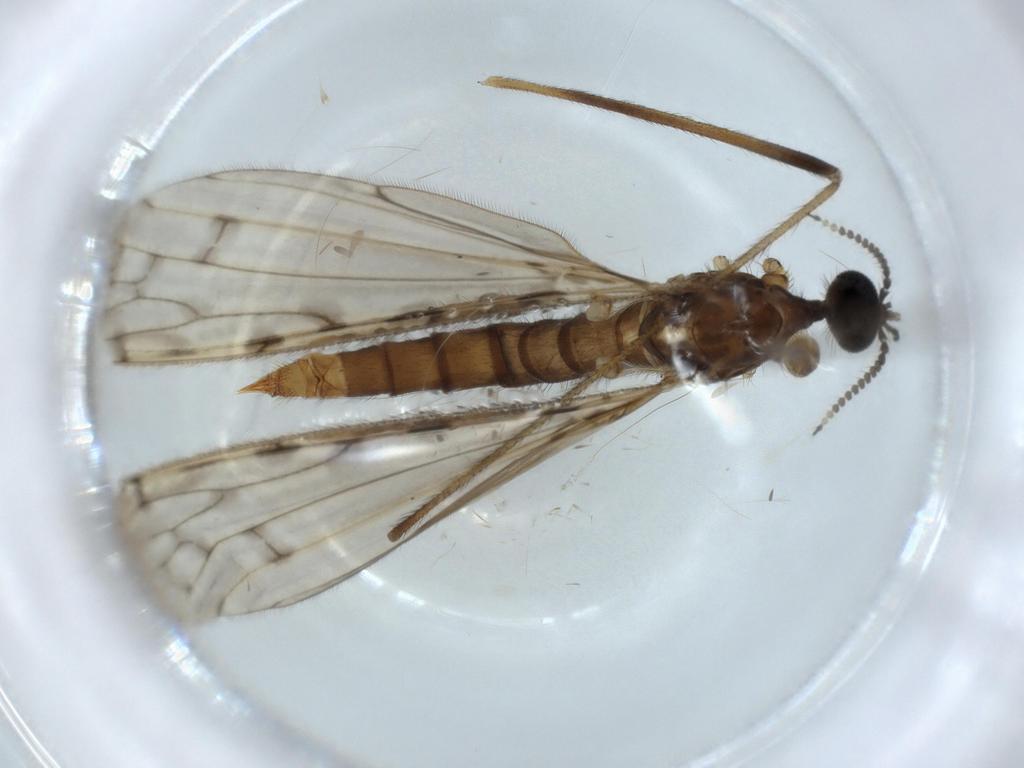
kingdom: Animalia
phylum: Arthropoda
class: Insecta
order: Diptera
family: Limoniidae
